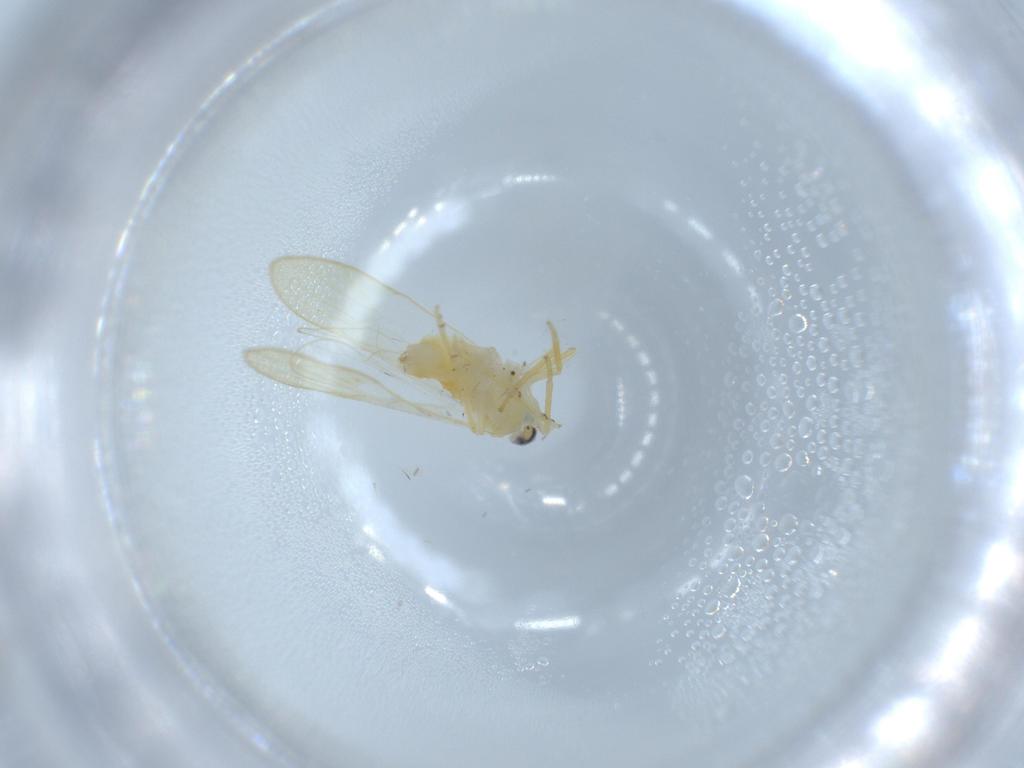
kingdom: Animalia
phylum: Arthropoda
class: Insecta
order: Hemiptera
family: Delphacidae
